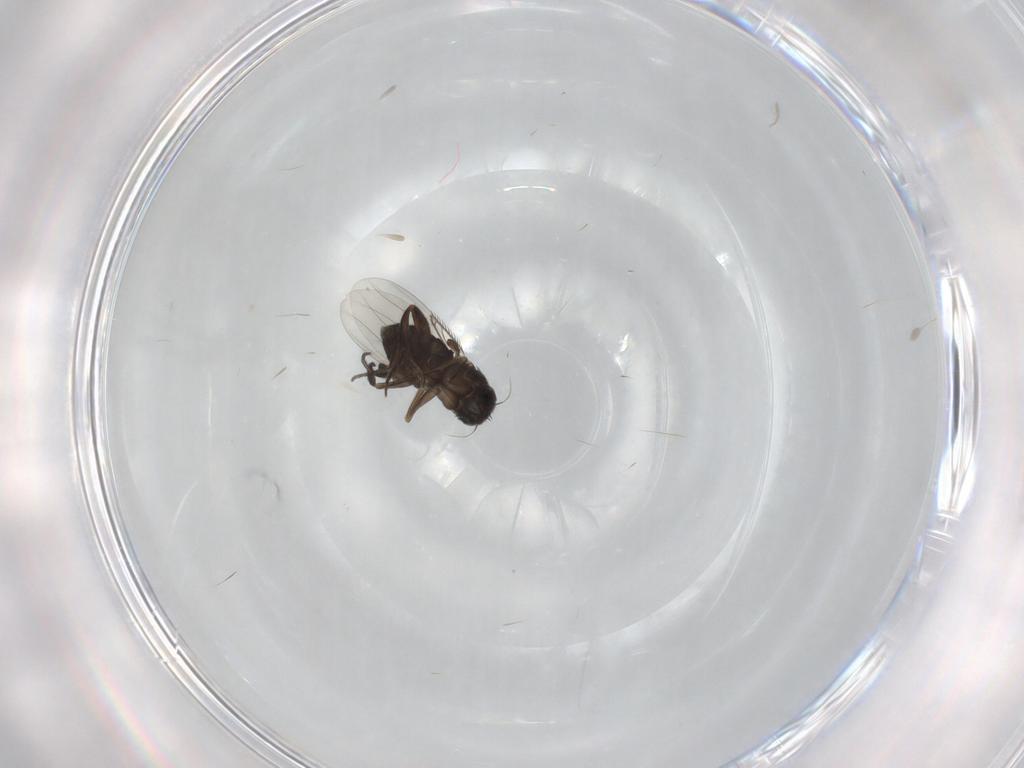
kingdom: Animalia
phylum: Arthropoda
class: Insecta
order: Diptera
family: Phoridae
